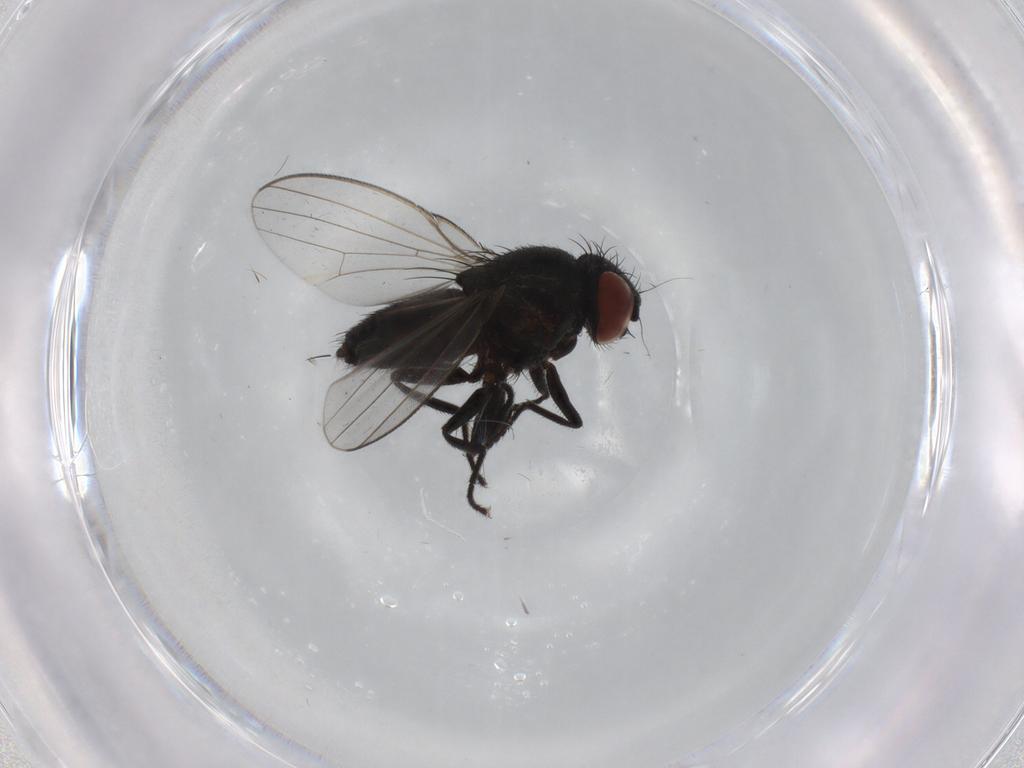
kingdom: Animalia
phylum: Arthropoda
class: Insecta
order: Diptera
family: Milichiidae
